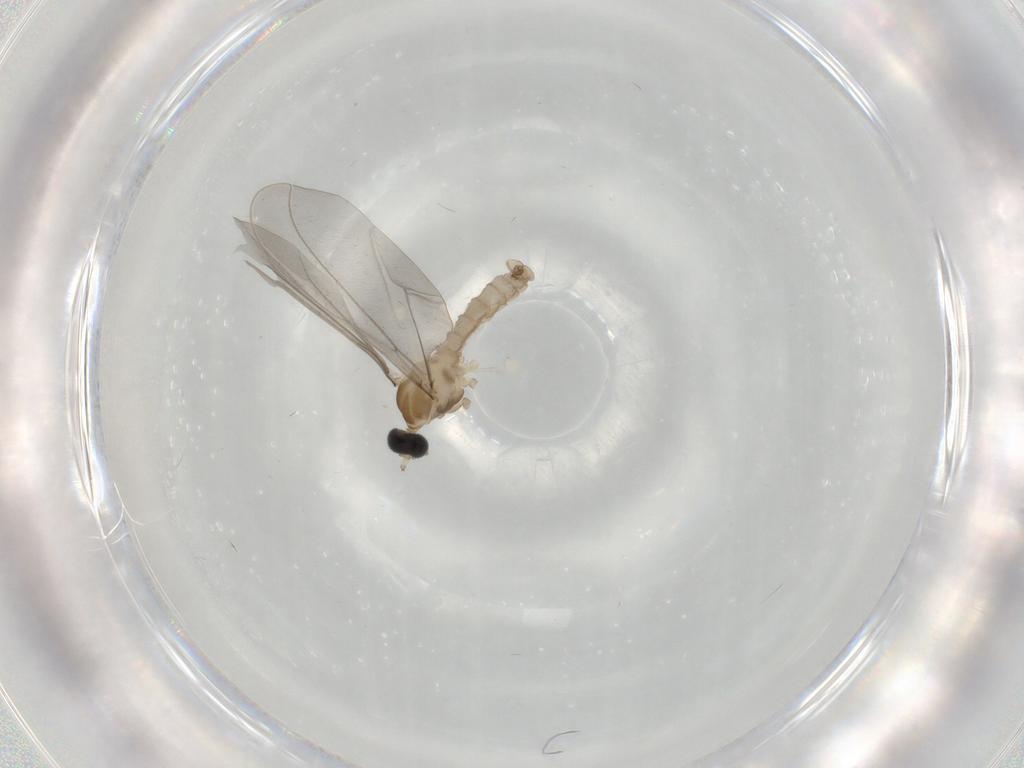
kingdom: Animalia
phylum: Arthropoda
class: Insecta
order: Diptera
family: Cecidomyiidae
